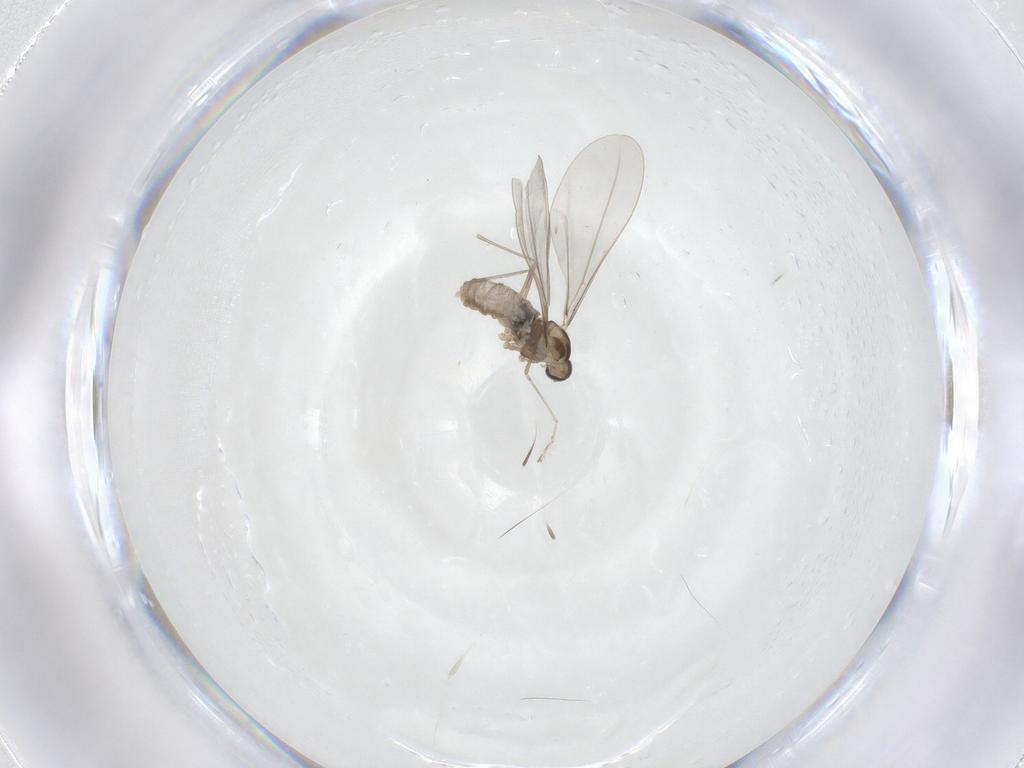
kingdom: Animalia
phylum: Arthropoda
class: Insecta
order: Diptera
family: Cecidomyiidae
